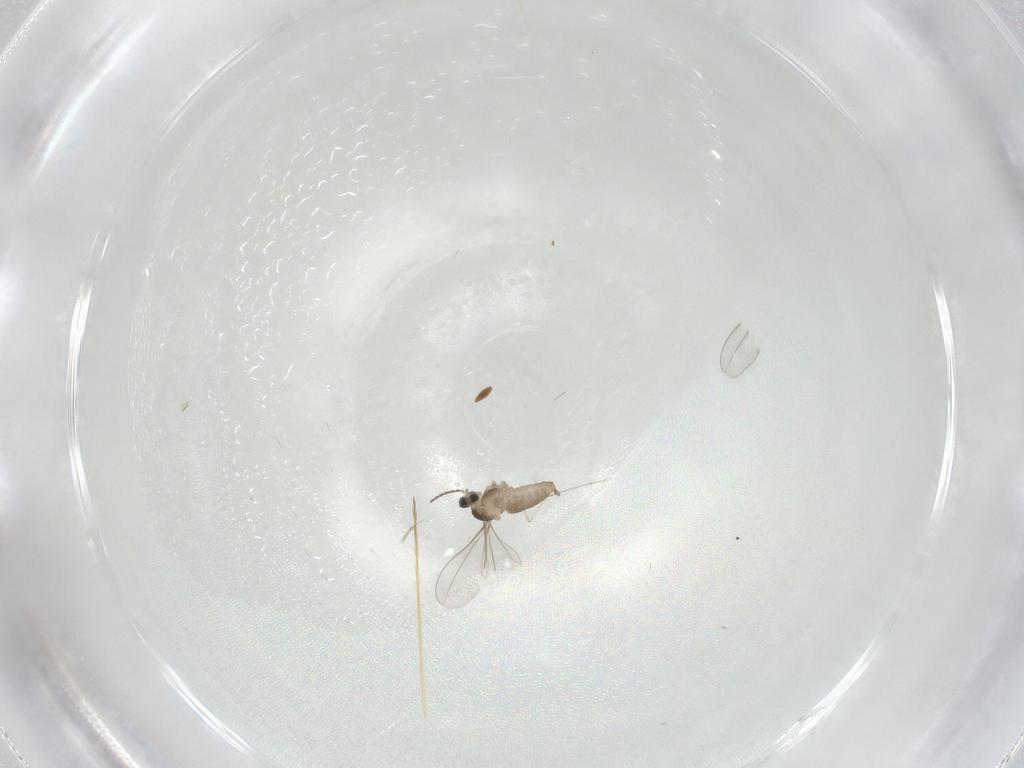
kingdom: Animalia
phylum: Arthropoda
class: Insecta
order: Diptera
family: Cecidomyiidae
